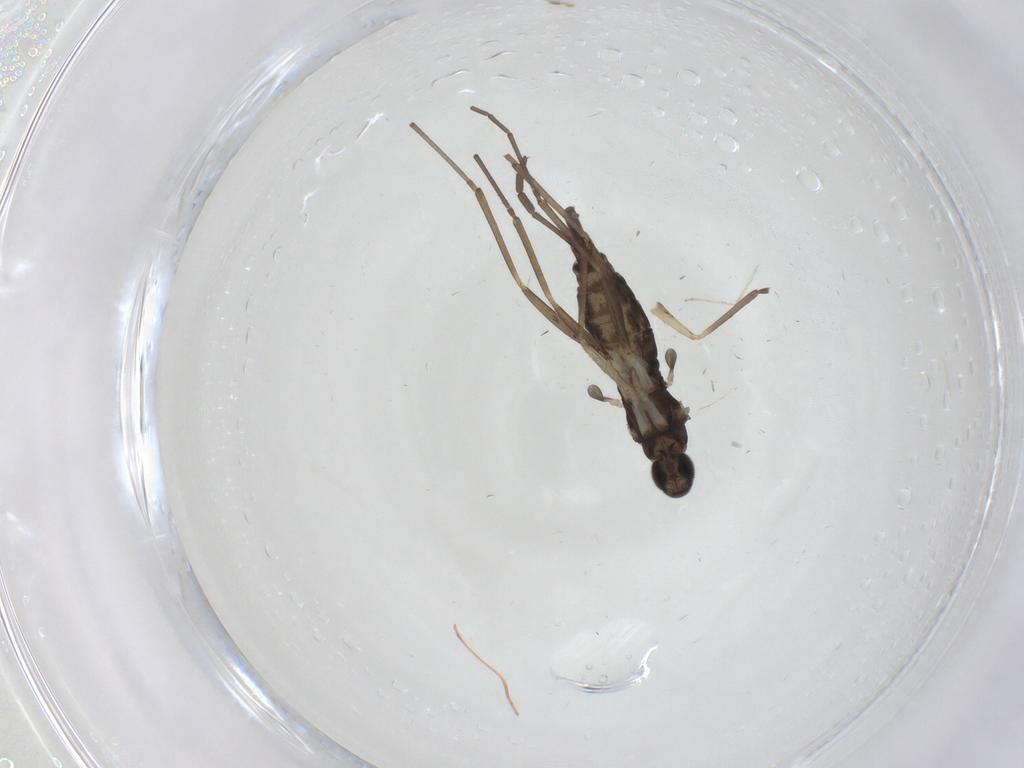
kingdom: Animalia
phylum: Arthropoda
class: Insecta
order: Diptera
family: Cecidomyiidae
